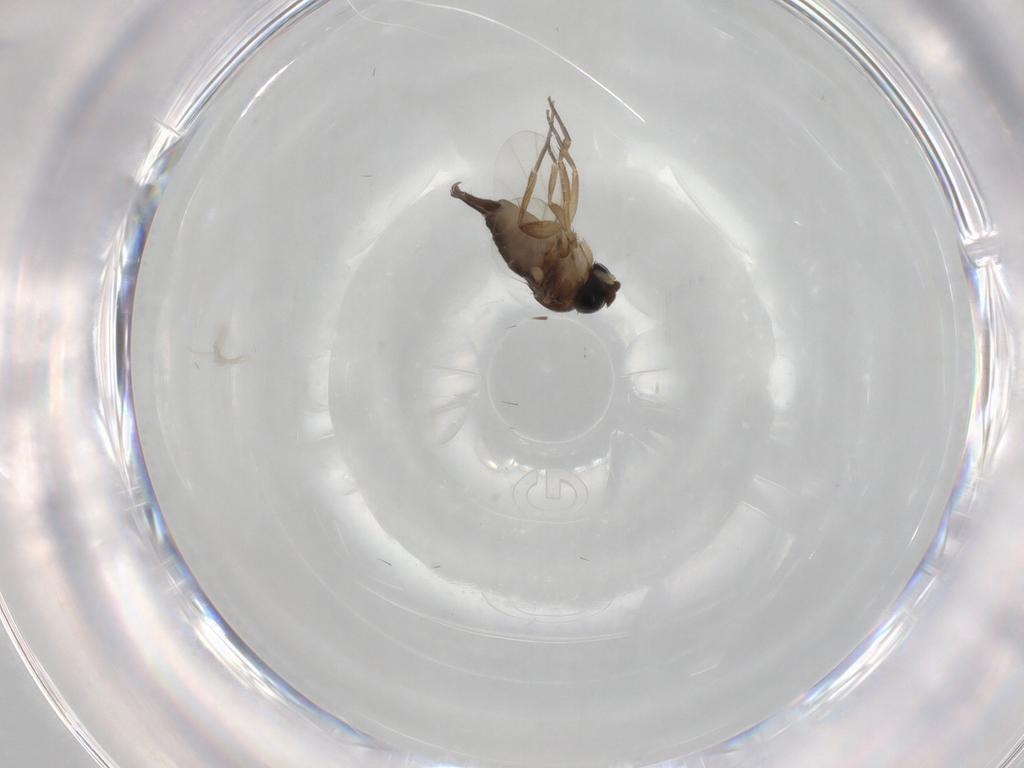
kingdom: Animalia
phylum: Arthropoda
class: Insecta
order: Diptera
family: Phoridae
